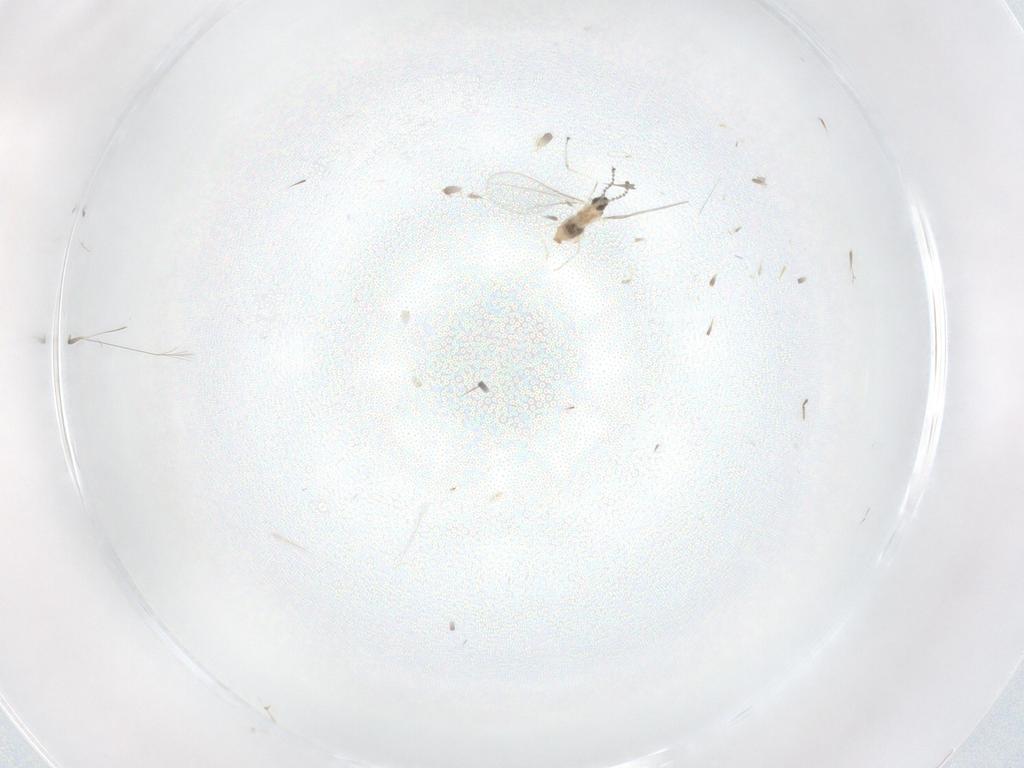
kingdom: Animalia
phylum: Arthropoda
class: Insecta
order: Diptera
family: Cecidomyiidae
